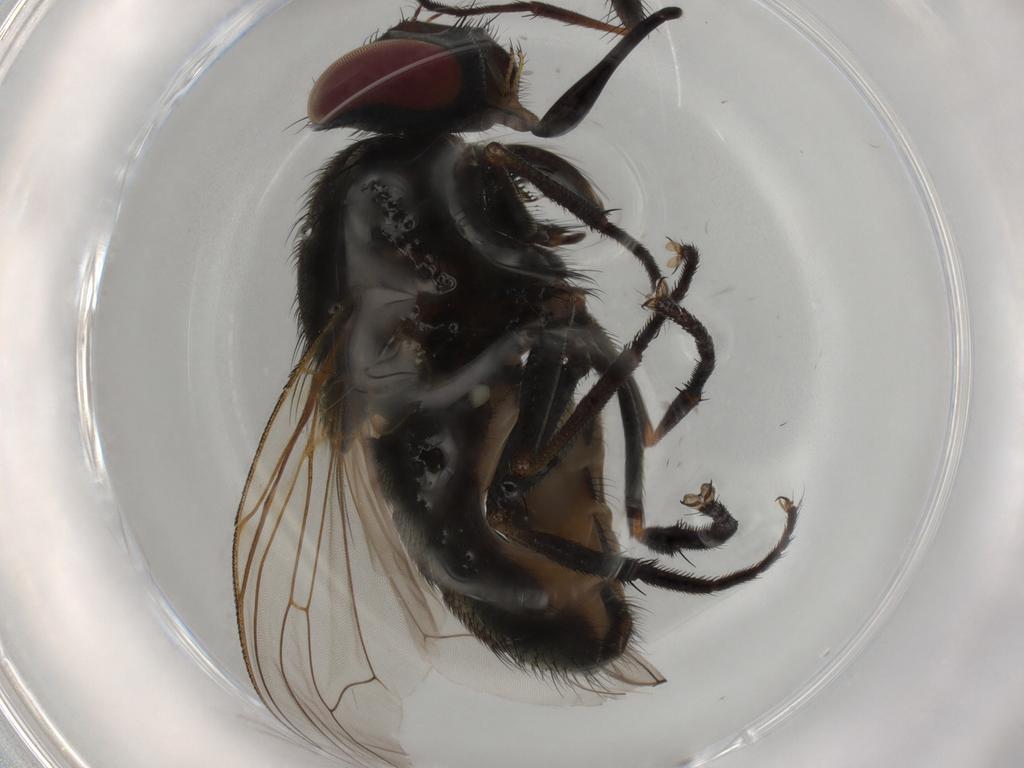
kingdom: Animalia
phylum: Arthropoda
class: Insecta
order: Diptera
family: Muscidae
